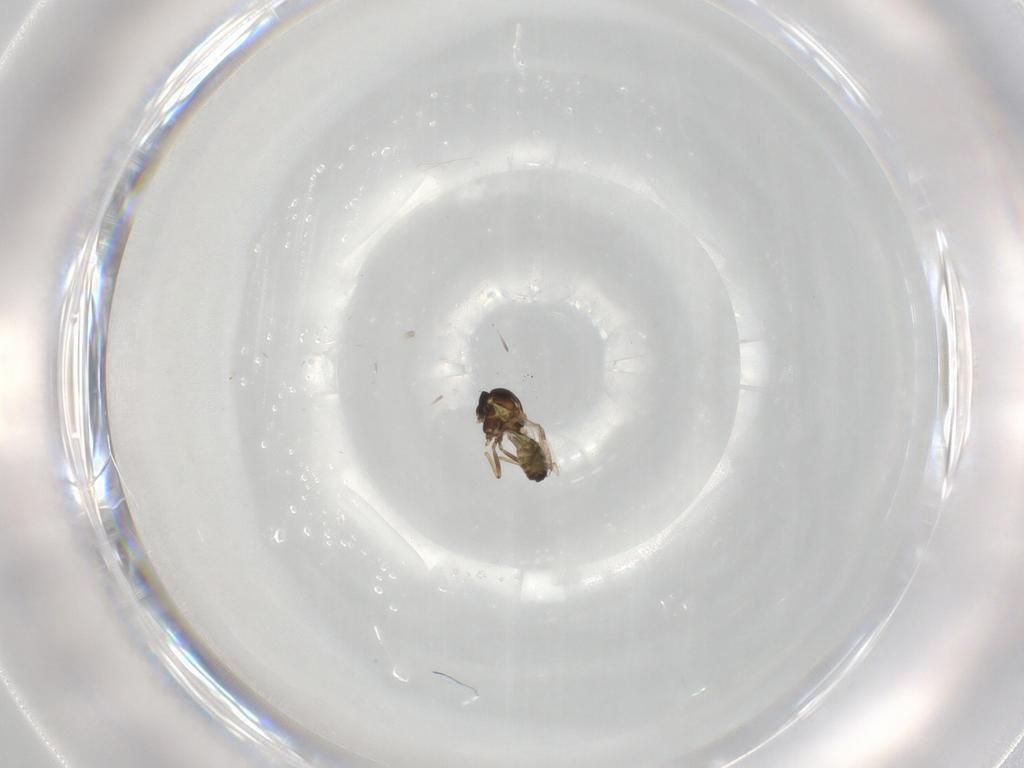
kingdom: Animalia
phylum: Arthropoda
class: Insecta
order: Diptera
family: Ceratopogonidae
